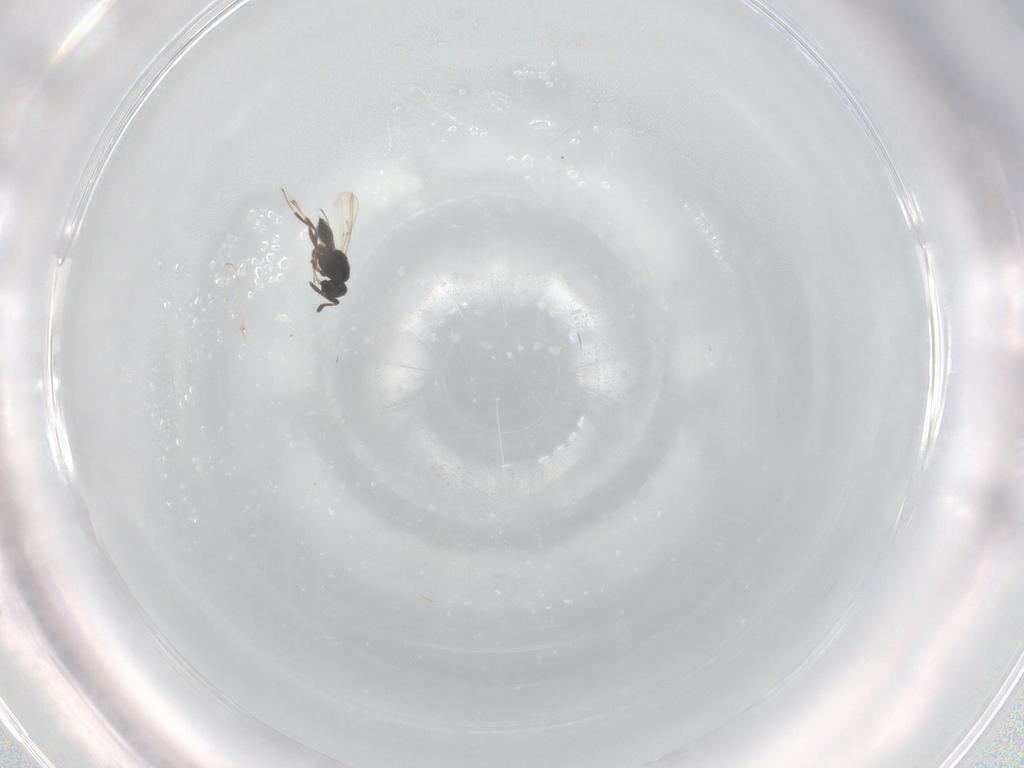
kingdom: Animalia
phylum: Arthropoda
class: Insecta
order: Hymenoptera
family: Scelionidae
